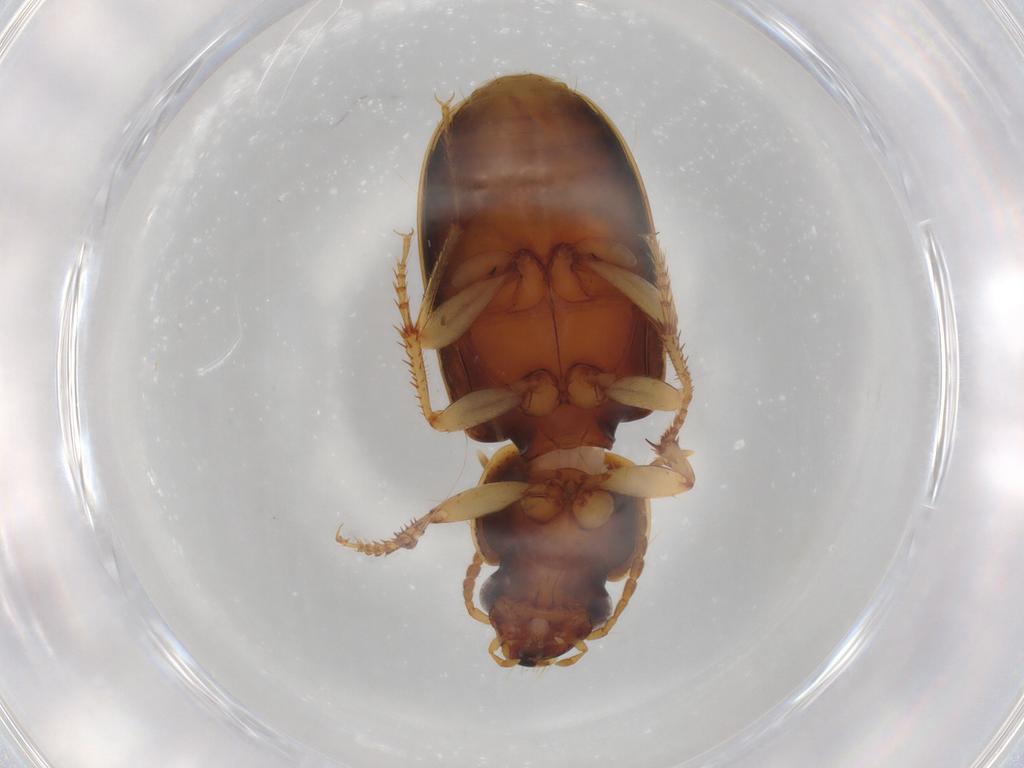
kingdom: Animalia
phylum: Arthropoda
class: Insecta
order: Coleoptera
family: Carabidae
